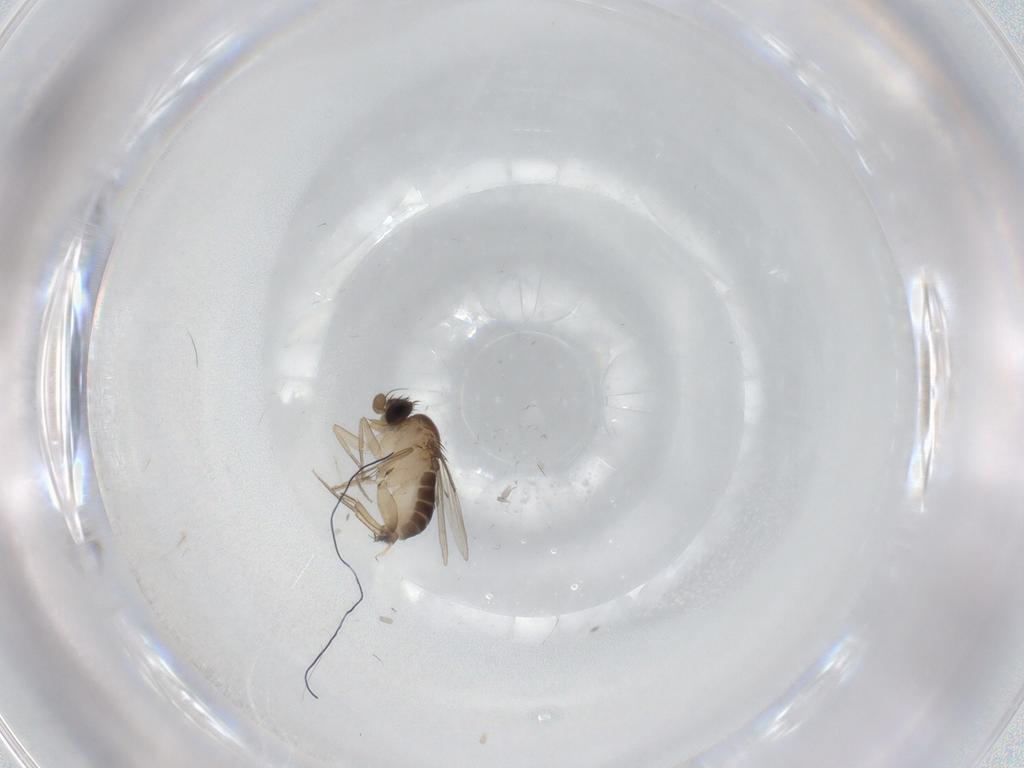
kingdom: Animalia
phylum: Arthropoda
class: Insecta
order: Diptera
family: Phoridae
